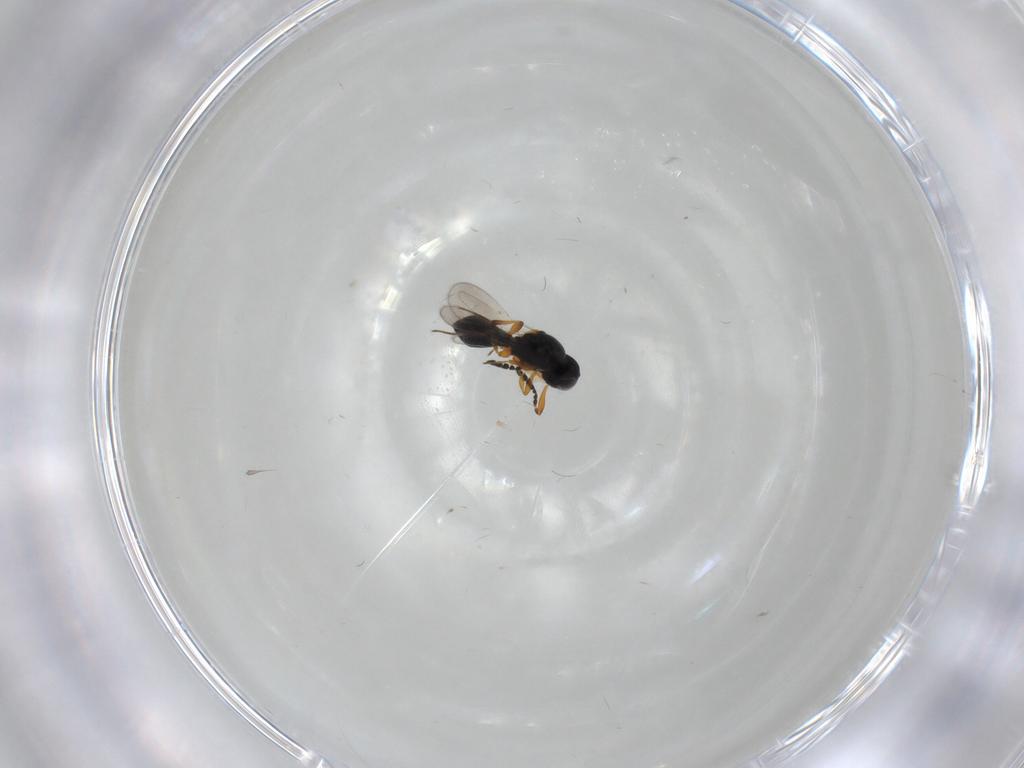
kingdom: Animalia
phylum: Arthropoda
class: Insecta
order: Hymenoptera
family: Platygastridae
